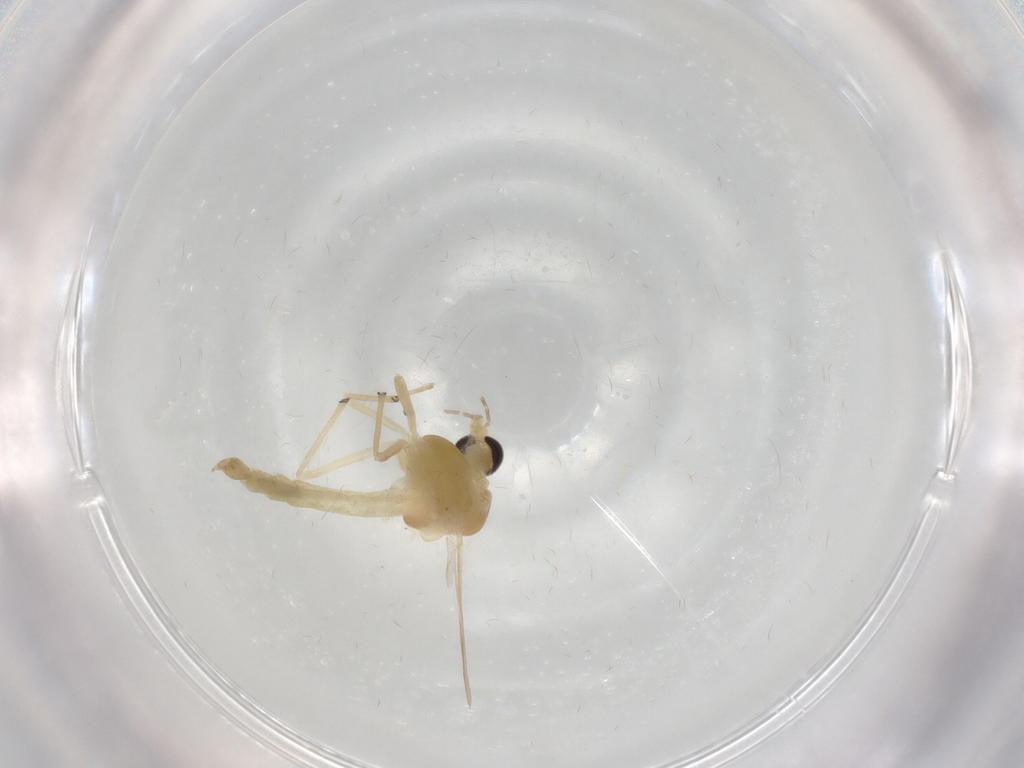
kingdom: Animalia
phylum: Arthropoda
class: Insecta
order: Diptera
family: Chironomidae
